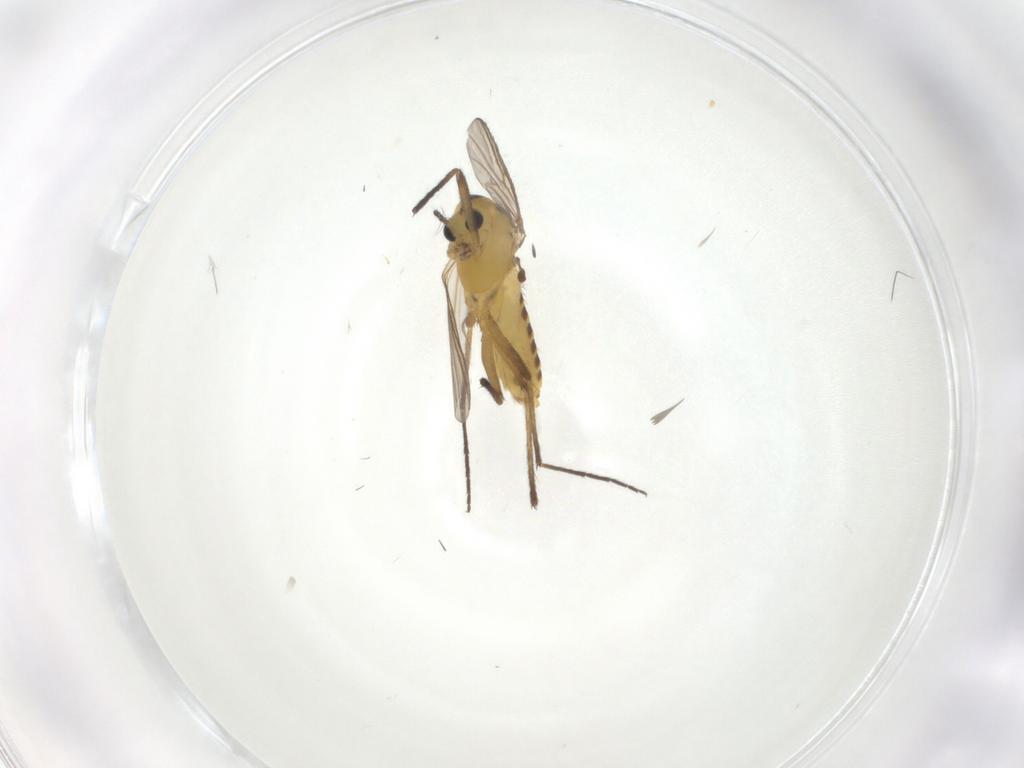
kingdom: Animalia
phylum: Arthropoda
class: Insecta
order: Diptera
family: Chironomidae
